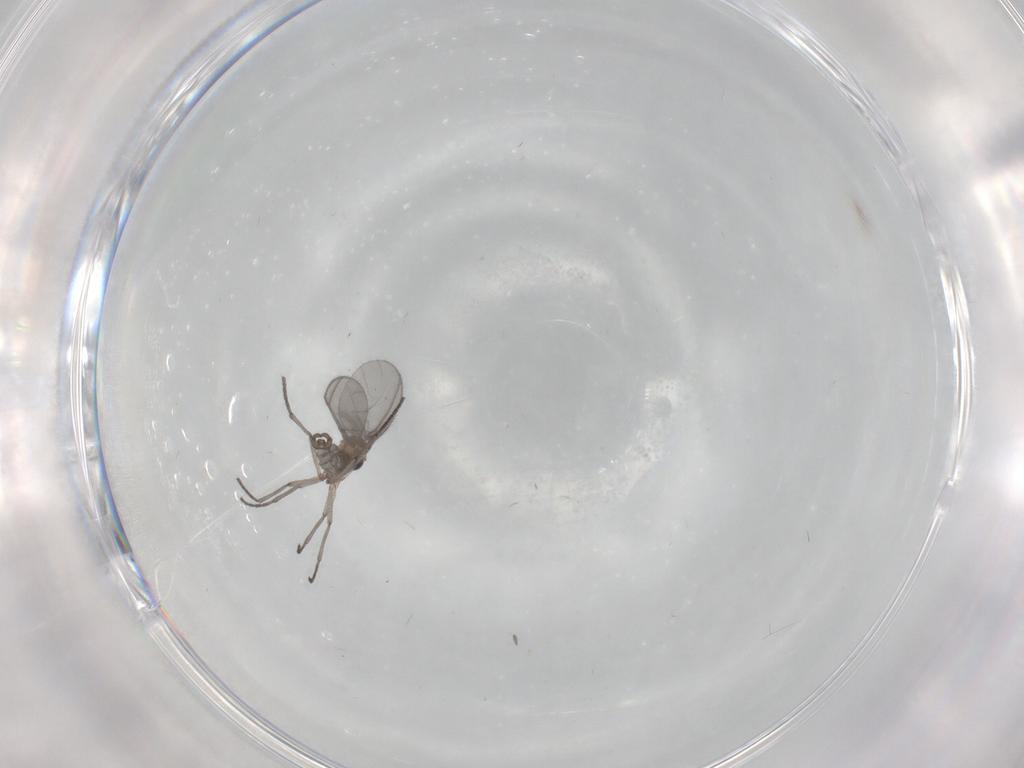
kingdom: Animalia
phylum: Arthropoda
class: Insecta
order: Diptera
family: Sciaridae
